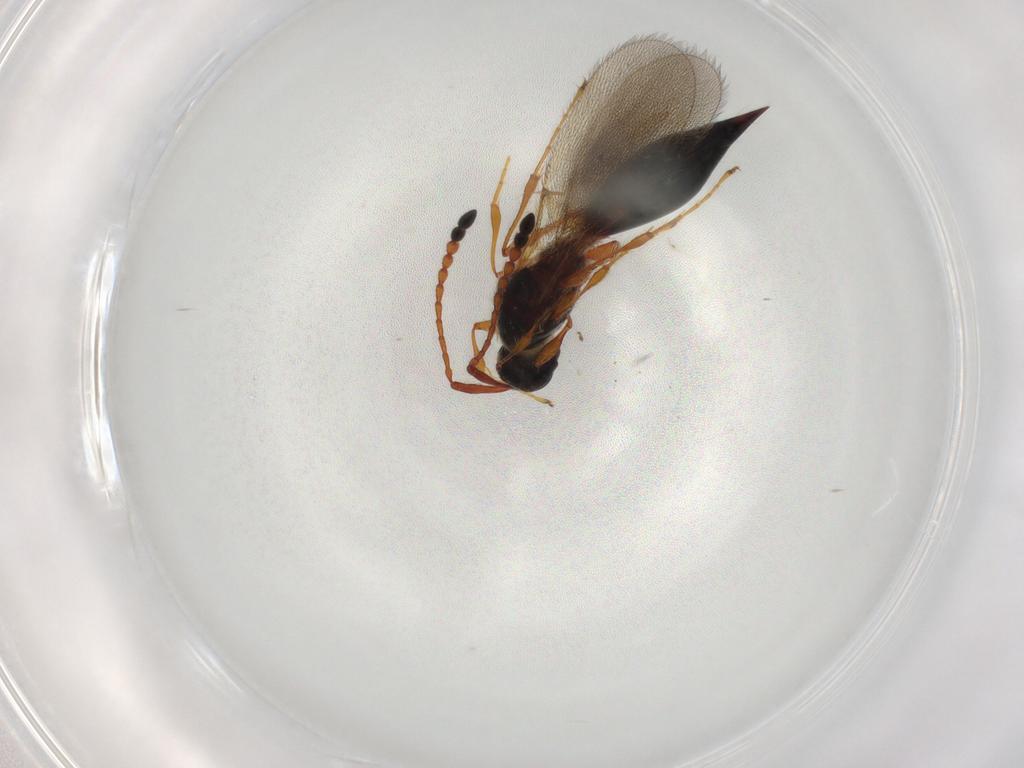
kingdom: Animalia
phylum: Arthropoda
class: Insecta
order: Hymenoptera
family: Diapriidae
